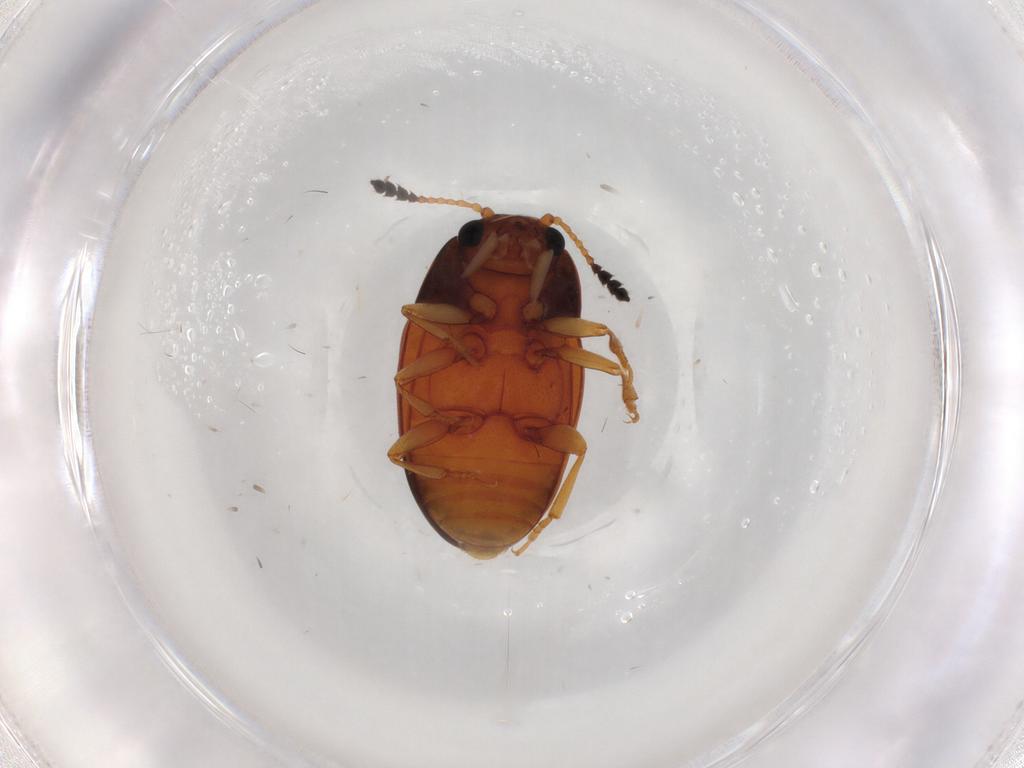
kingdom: Animalia
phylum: Arthropoda
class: Insecta
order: Coleoptera
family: Erotylidae
